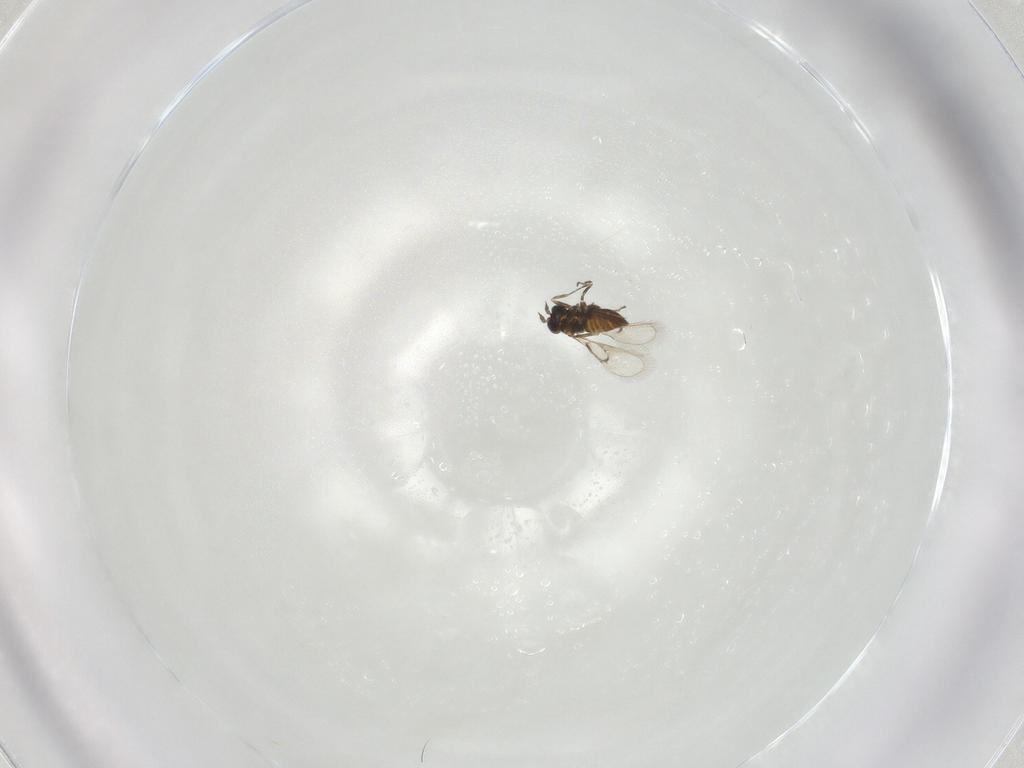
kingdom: Animalia
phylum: Arthropoda
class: Insecta
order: Hymenoptera
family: Trichogrammatidae
